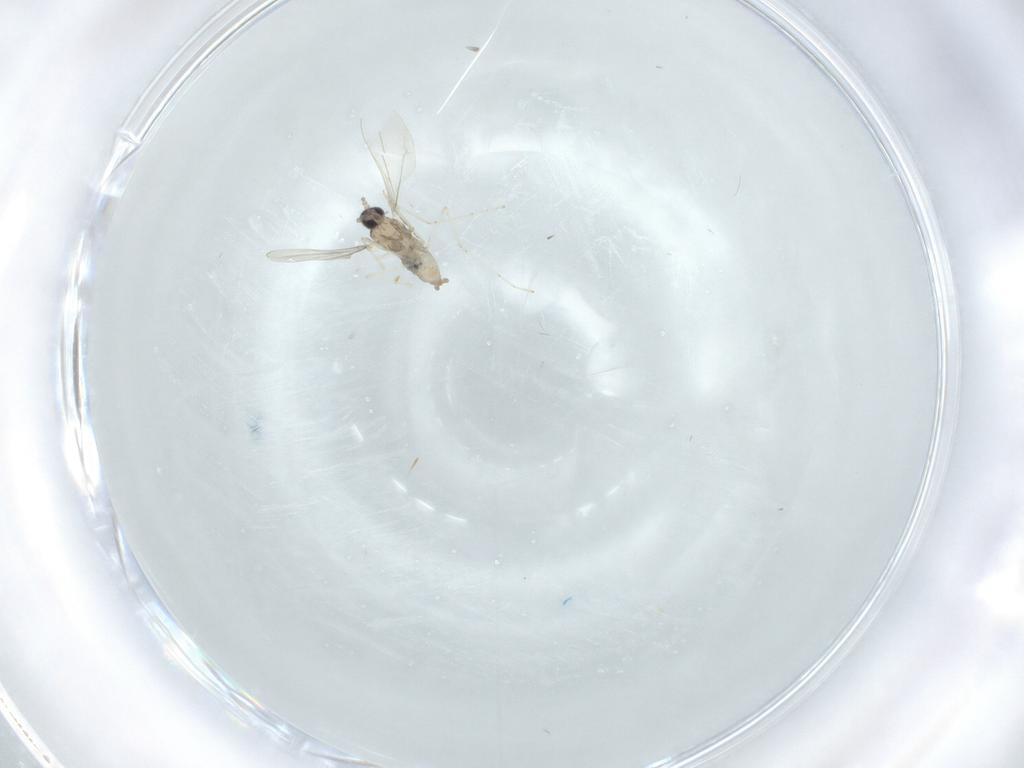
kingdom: Animalia
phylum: Arthropoda
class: Insecta
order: Diptera
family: Cecidomyiidae
